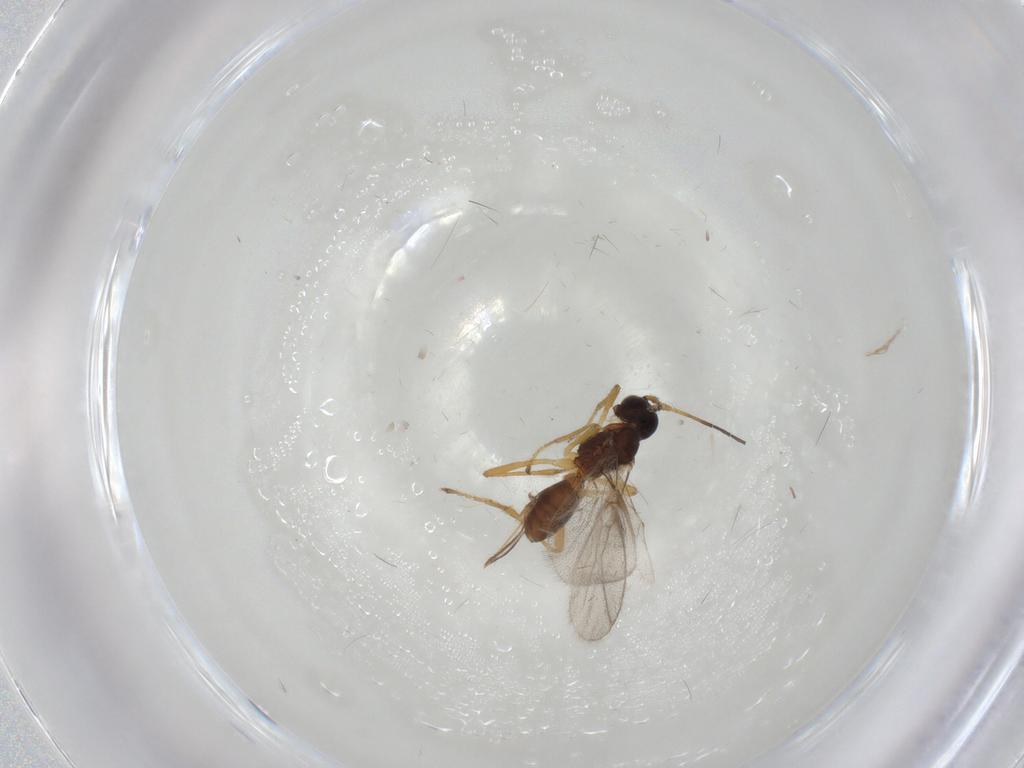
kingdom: Animalia
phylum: Arthropoda
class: Insecta
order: Hymenoptera
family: Braconidae
